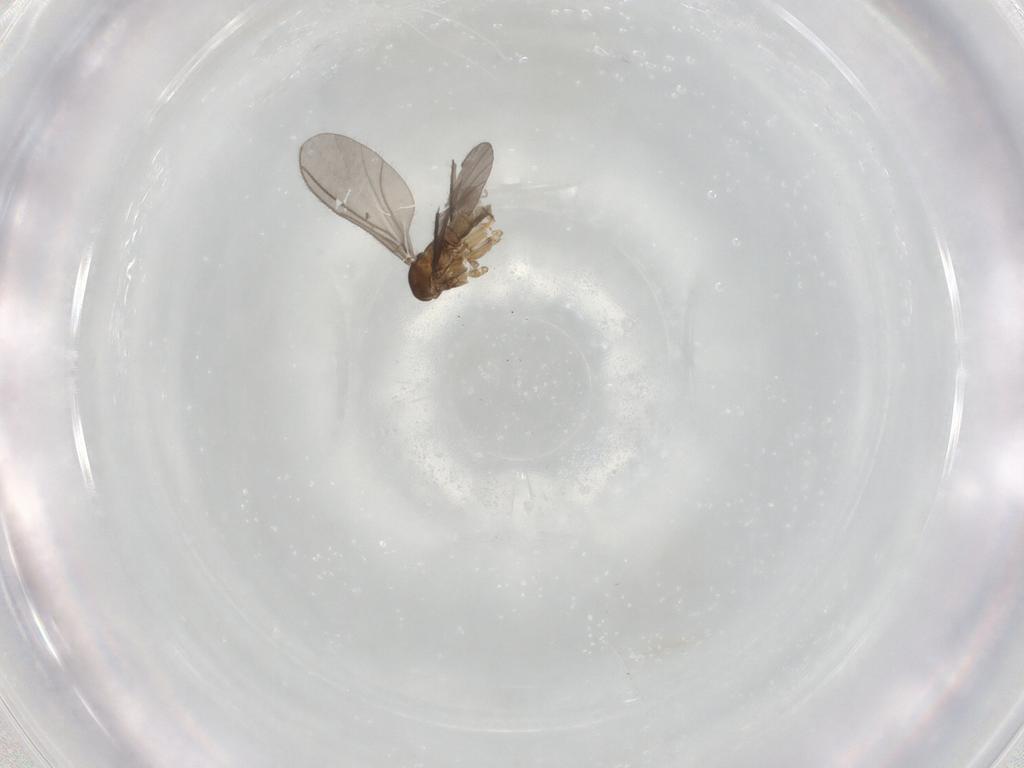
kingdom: Animalia
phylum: Arthropoda
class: Insecta
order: Diptera
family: Sciaridae
